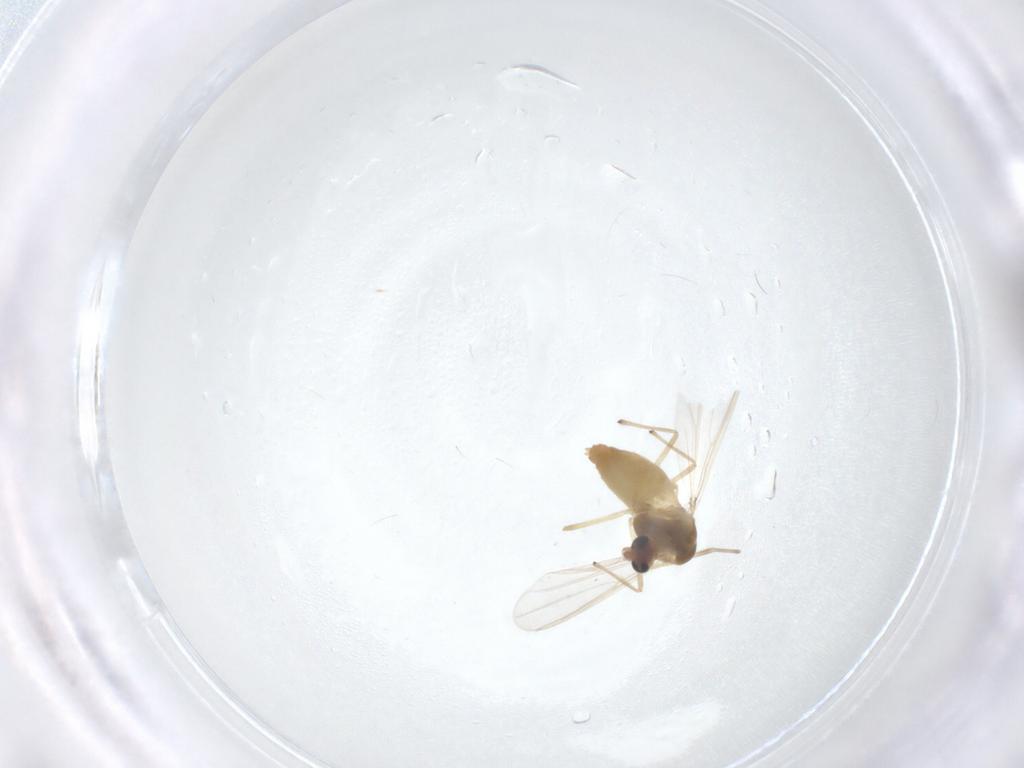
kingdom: Animalia
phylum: Arthropoda
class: Insecta
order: Diptera
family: Chironomidae
